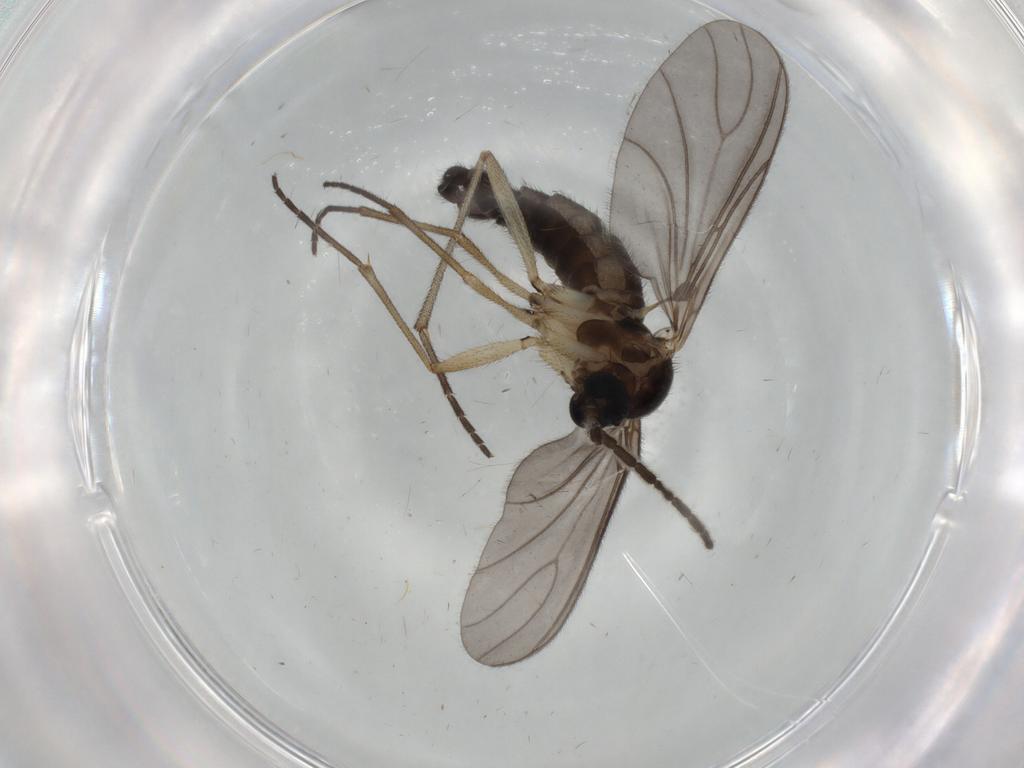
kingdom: Animalia
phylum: Arthropoda
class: Insecta
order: Diptera
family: Sciaridae
